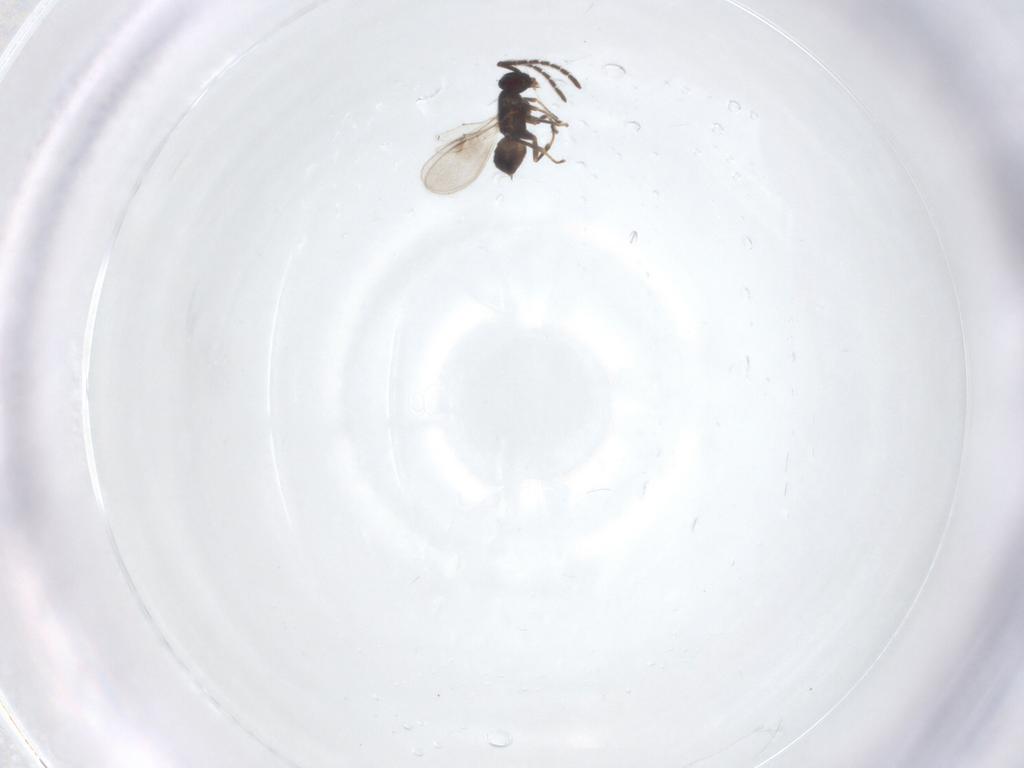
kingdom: Animalia
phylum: Arthropoda
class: Insecta
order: Hymenoptera
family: Encyrtidae
